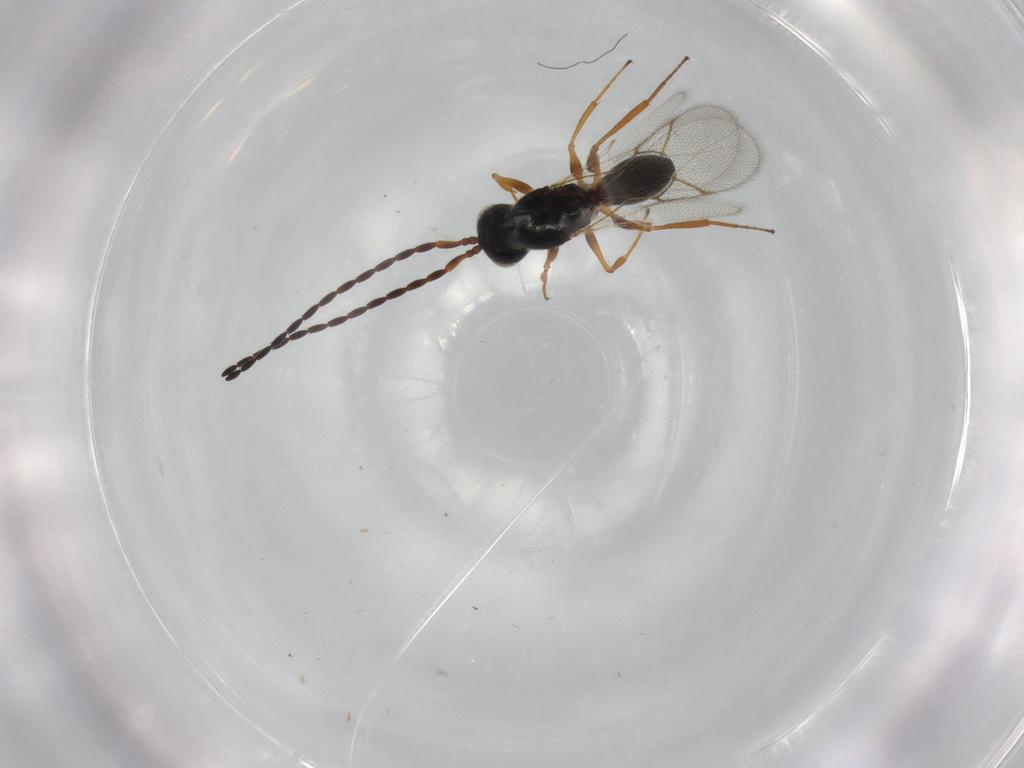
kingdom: Animalia
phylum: Arthropoda
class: Insecta
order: Hymenoptera
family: Figitidae
